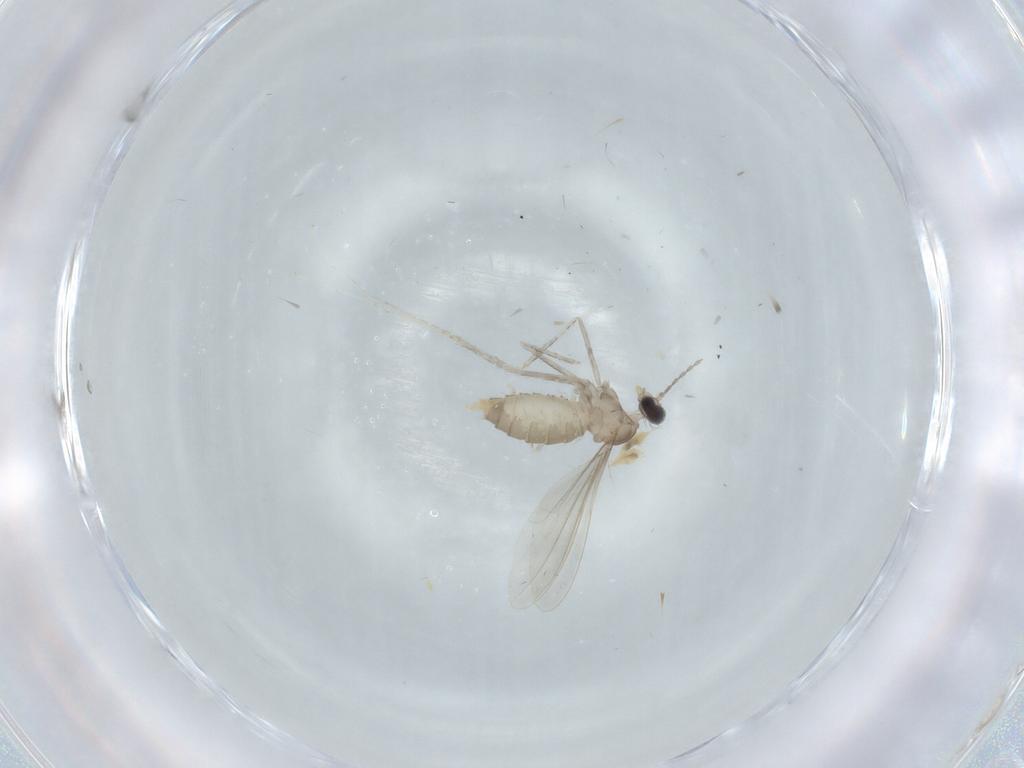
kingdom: Animalia
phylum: Arthropoda
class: Insecta
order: Diptera
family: Cecidomyiidae
